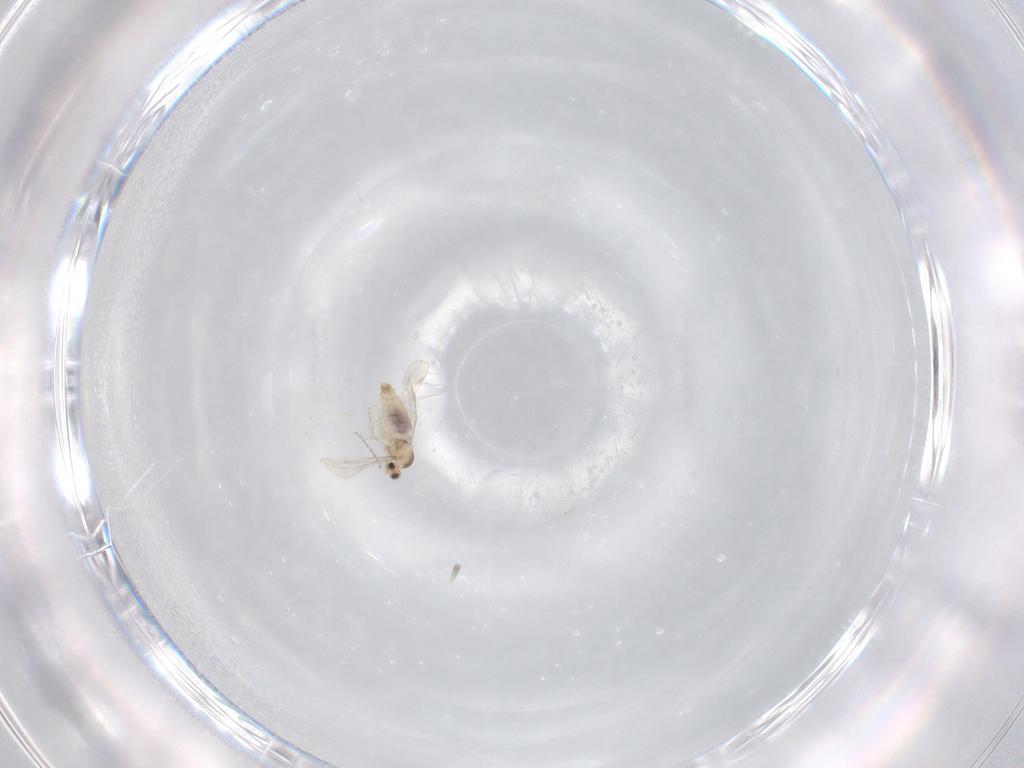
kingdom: Animalia
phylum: Arthropoda
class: Insecta
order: Diptera
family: Cecidomyiidae
